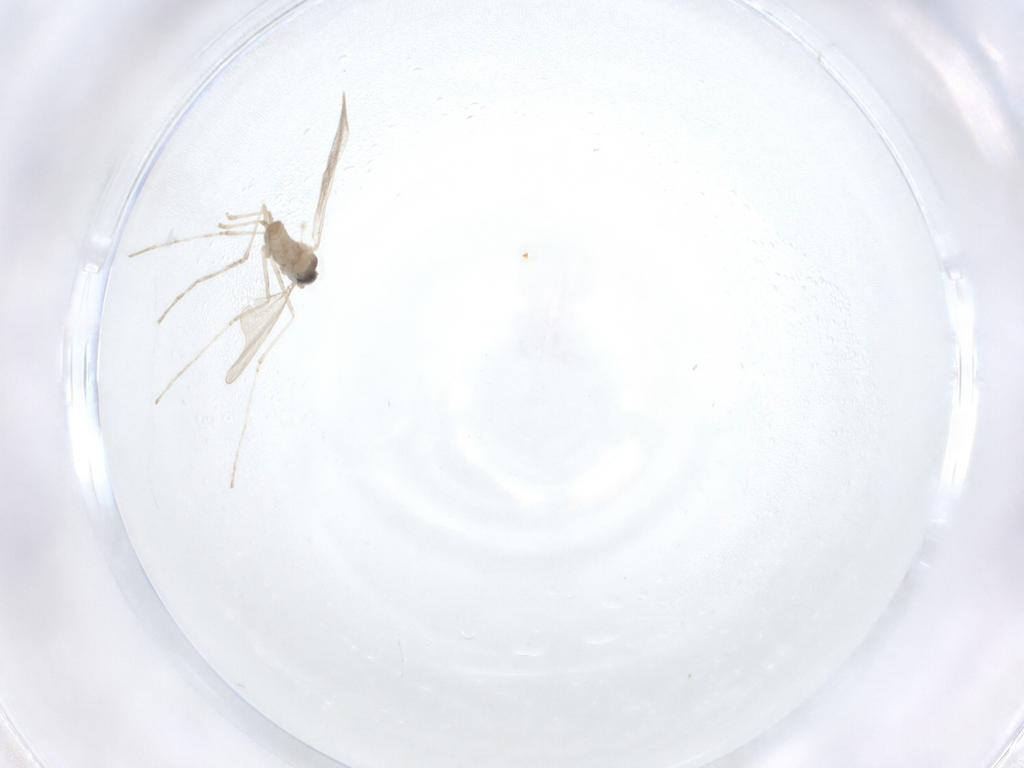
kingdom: Animalia
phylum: Arthropoda
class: Insecta
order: Diptera
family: Cecidomyiidae
